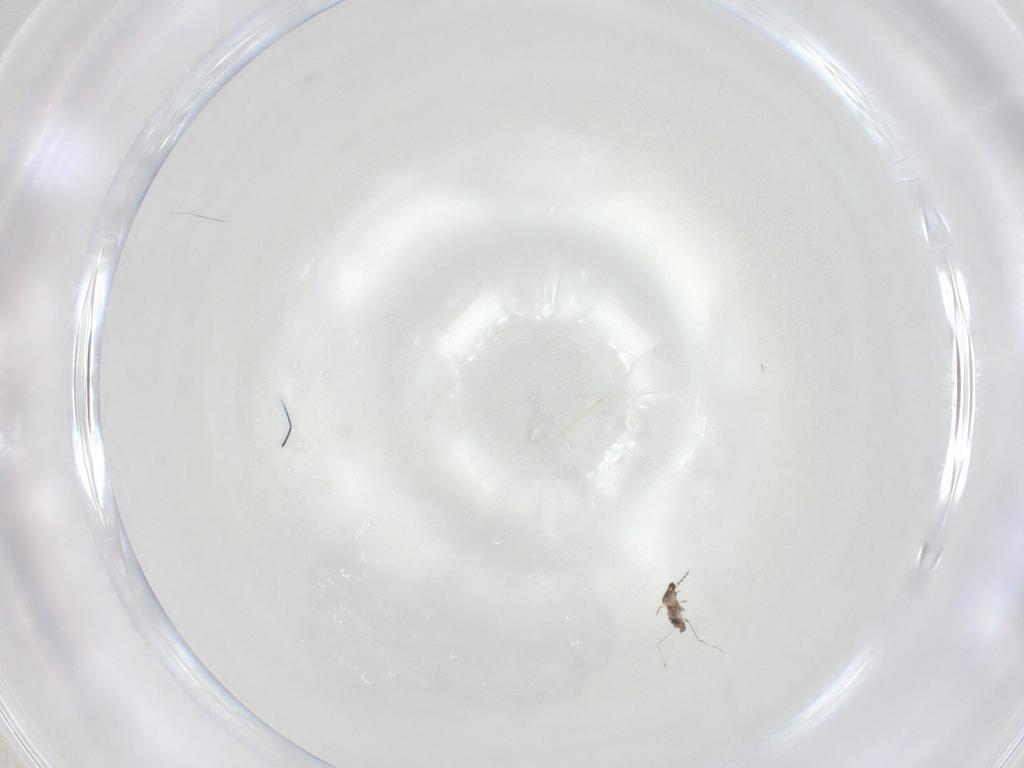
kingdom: Animalia
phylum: Arthropoda
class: Insecta
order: Diptera
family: Cecidomyiidae
